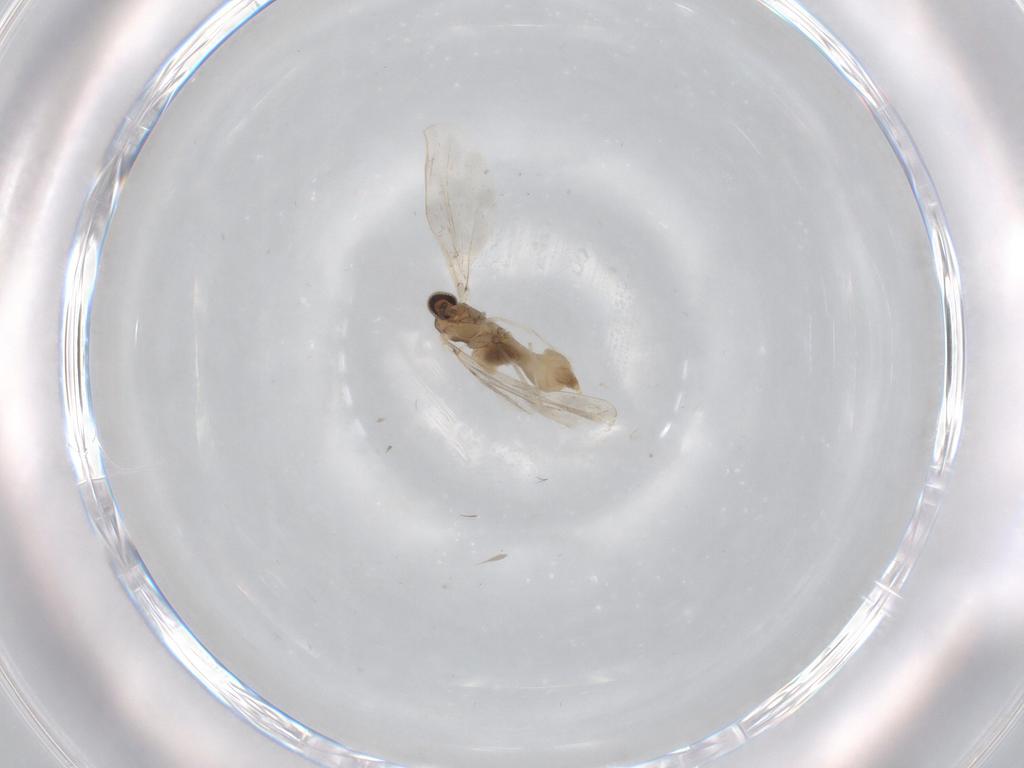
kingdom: Animalia
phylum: Arthropoda
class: Insecta
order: Diptera
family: Cecidomyiidae
